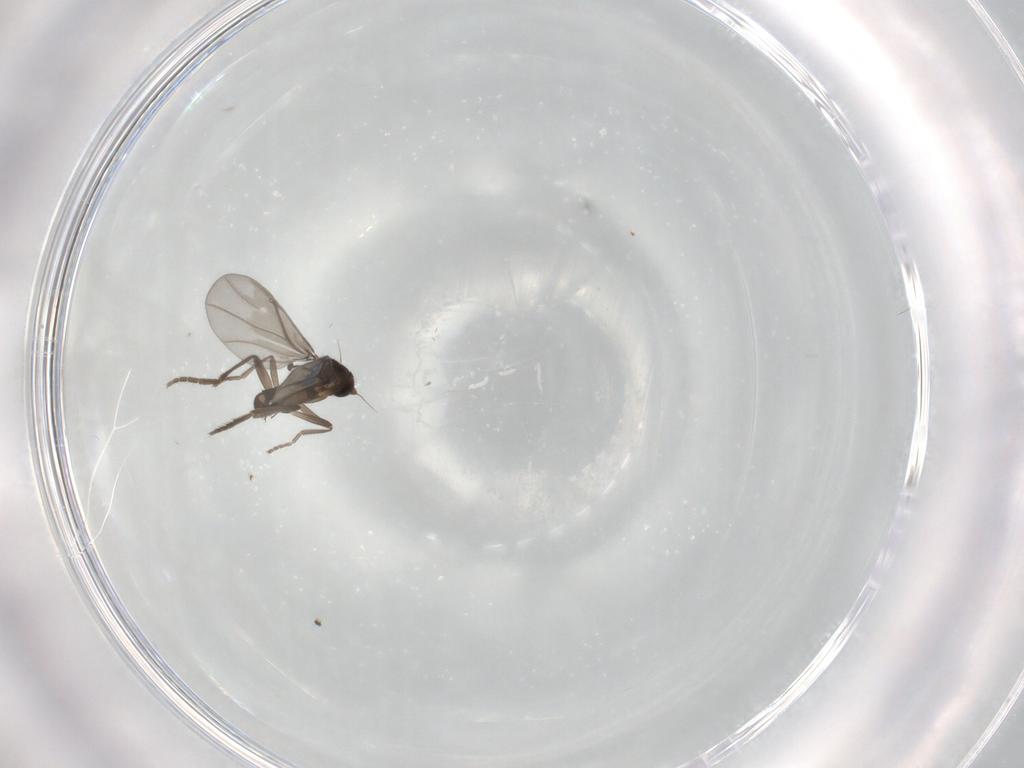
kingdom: Animalia
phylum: Arthropoda
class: Insecta
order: Diptera
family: Phoridae
